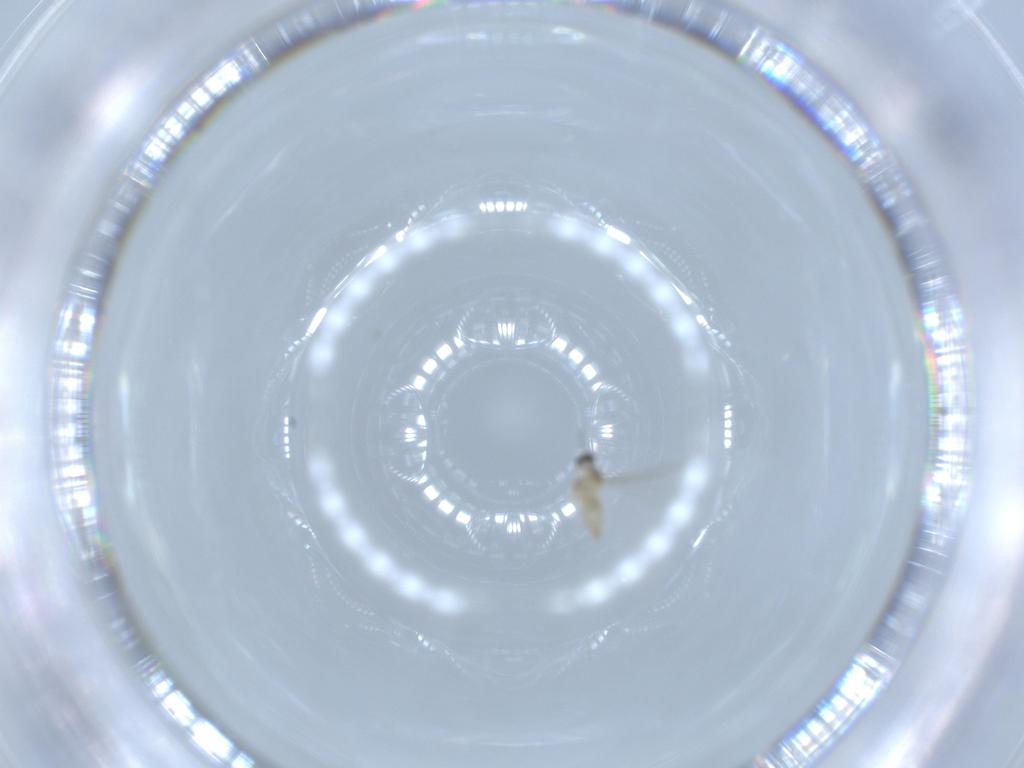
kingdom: Animalia
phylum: Arthropoda
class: Insecta
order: Diptera
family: Cecidomyiidae
